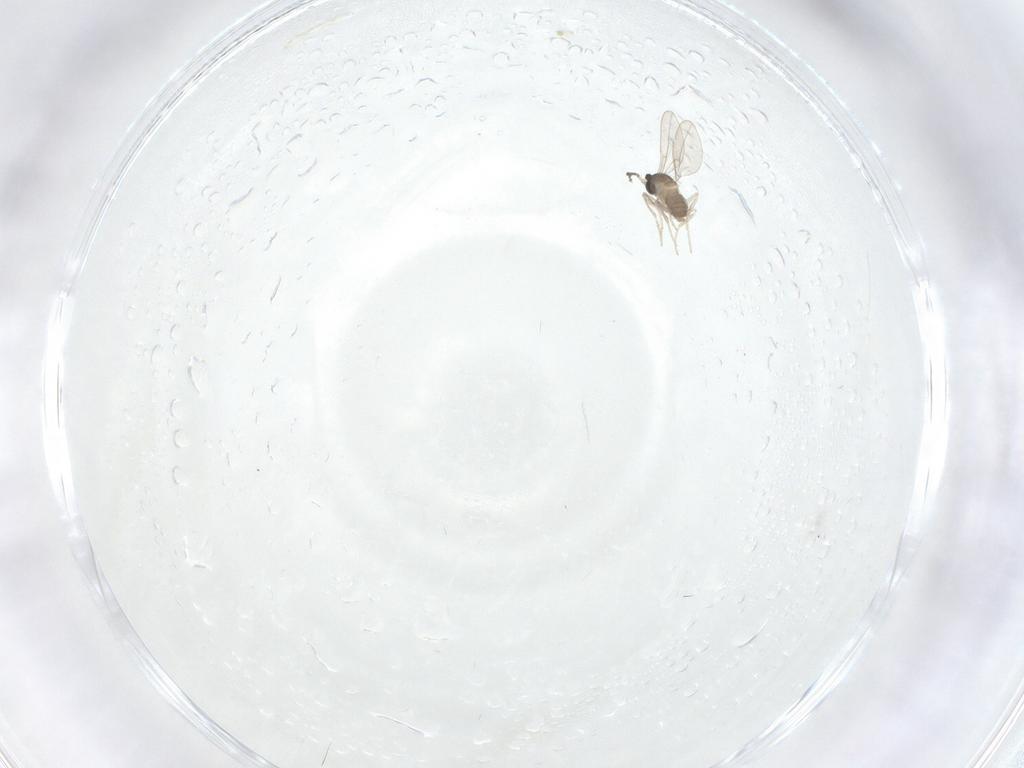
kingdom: Animalia
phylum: Arthropoda
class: Insecta
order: Diptera
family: Cecidomyiidae
